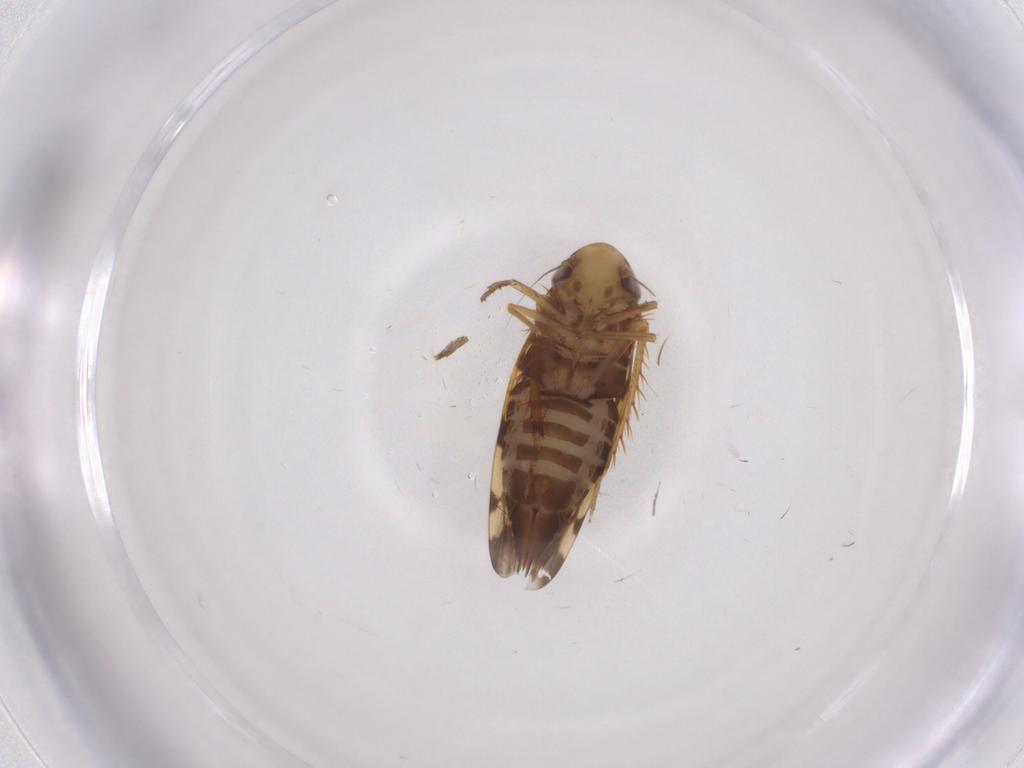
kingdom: Animalia
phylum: Arthropoda
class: Insecta
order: Hemiptera
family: Cicadellidae
